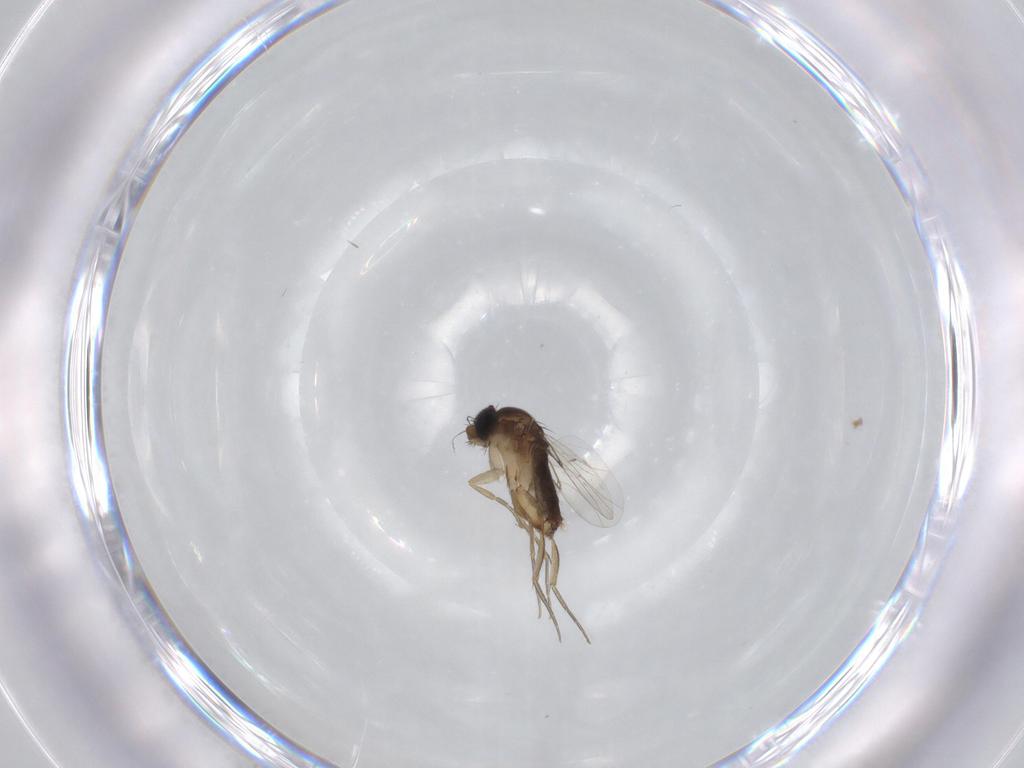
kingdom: Animalia
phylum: Arthropoda
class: Insecta
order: Diptera
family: Phoridae
